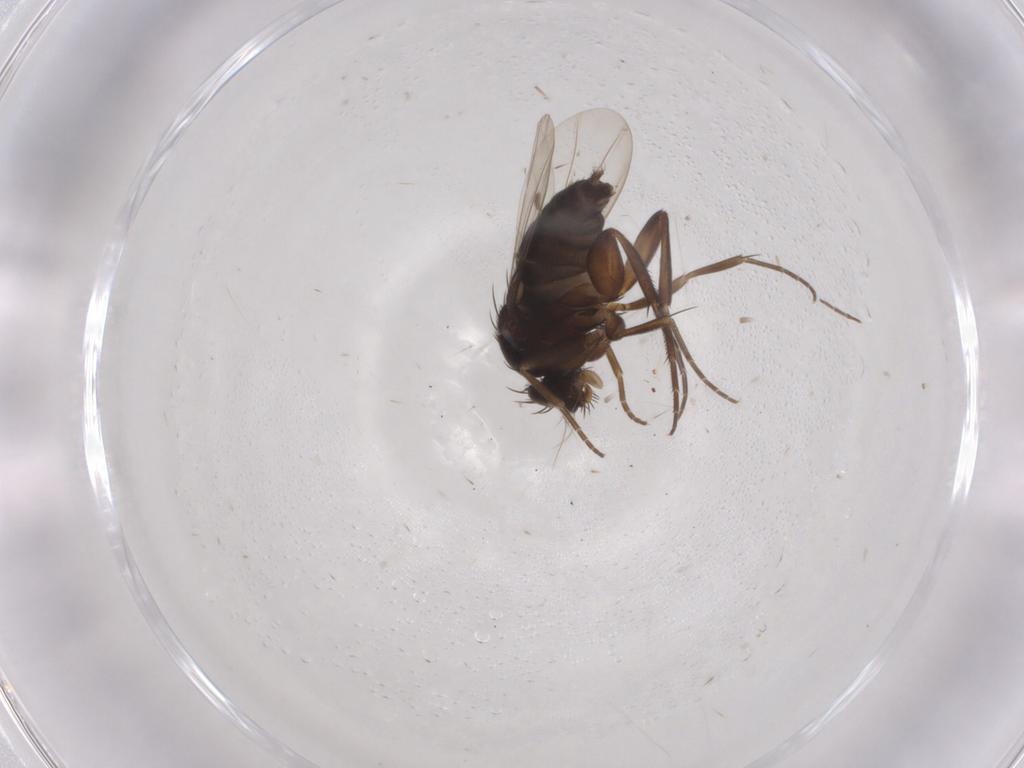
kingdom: Animalia
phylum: Arthropoda
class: Insecta
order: Diptera
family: Phoridae
